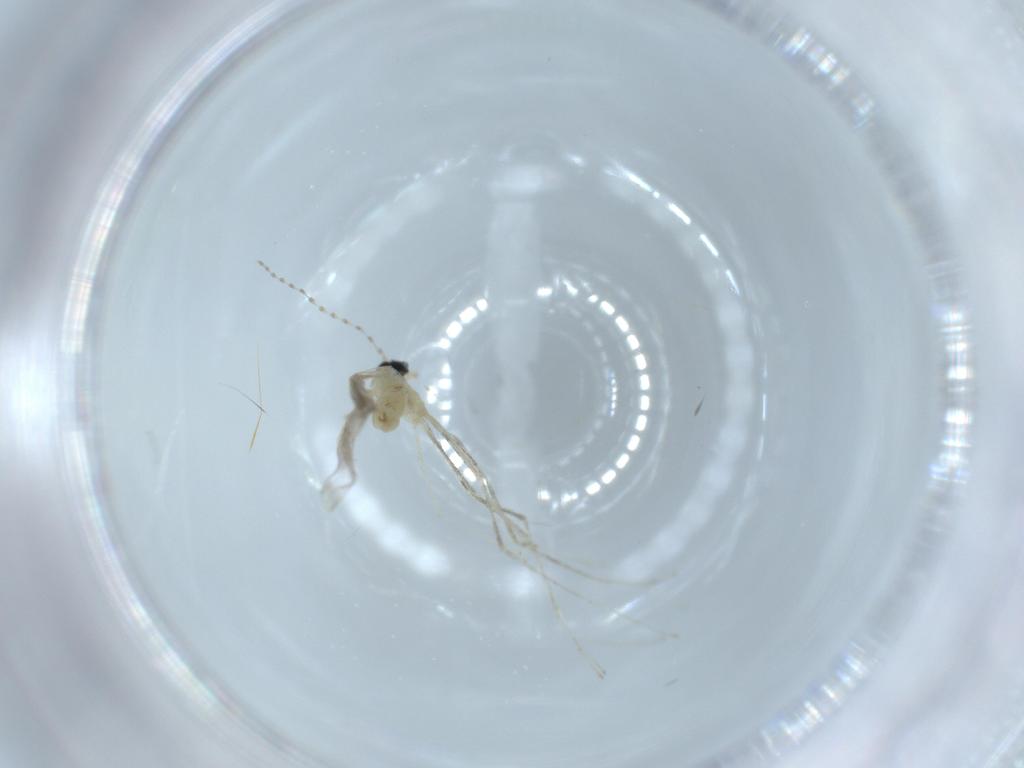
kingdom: Animalia
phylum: Arthropoda
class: Insecta
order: Diptera
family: Cecidomyiidae
